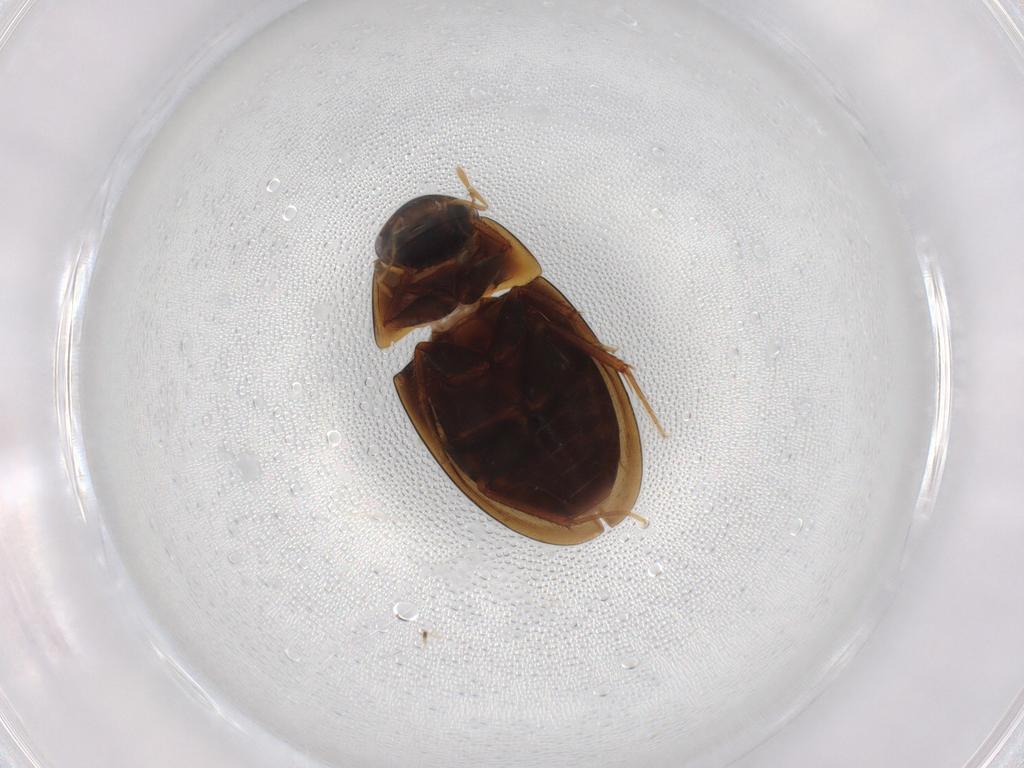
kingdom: Animalia
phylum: Arthropoda
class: Insecta
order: Coleoptera
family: Hydrophilidae
